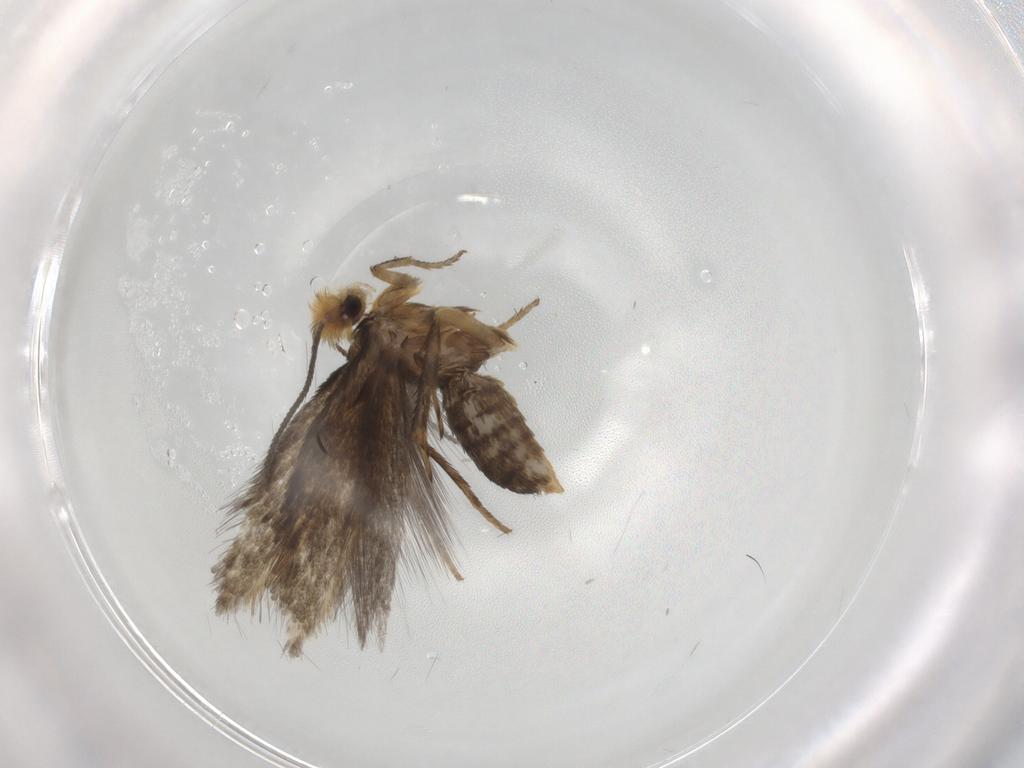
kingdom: Animalia
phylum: Arthropoda
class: Insecta
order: Lepidoptera
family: Nepticulidae
